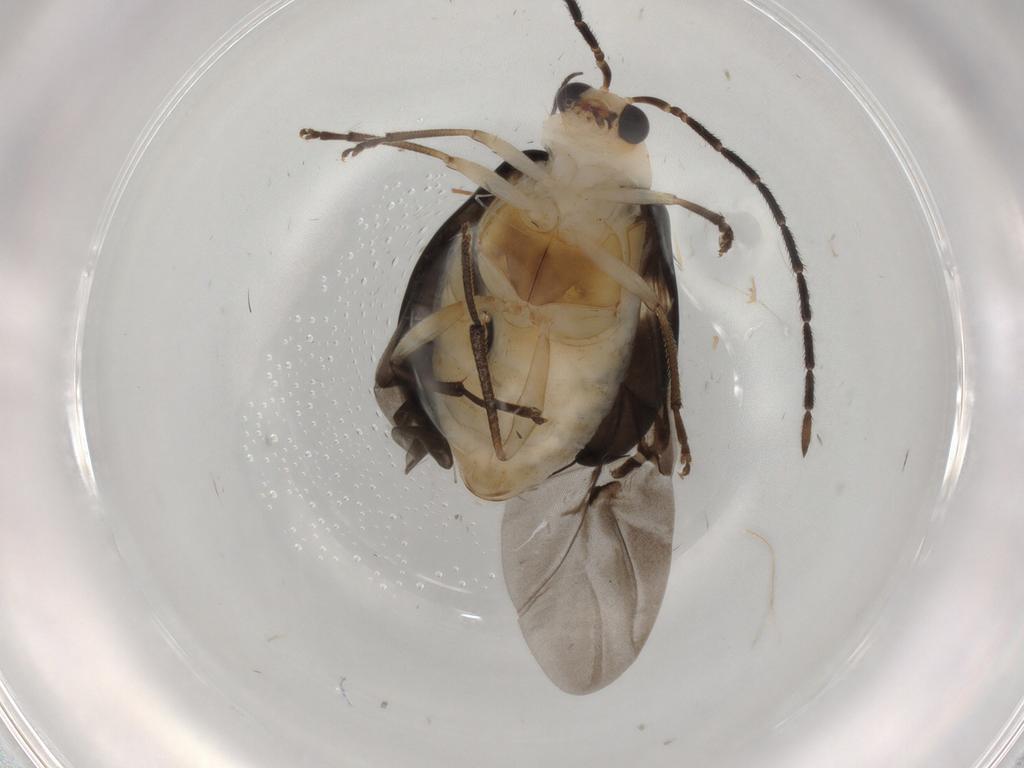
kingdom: Animalia
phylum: Arthropoda
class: Insecta
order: Coleoptera
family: Chrysomelidae
